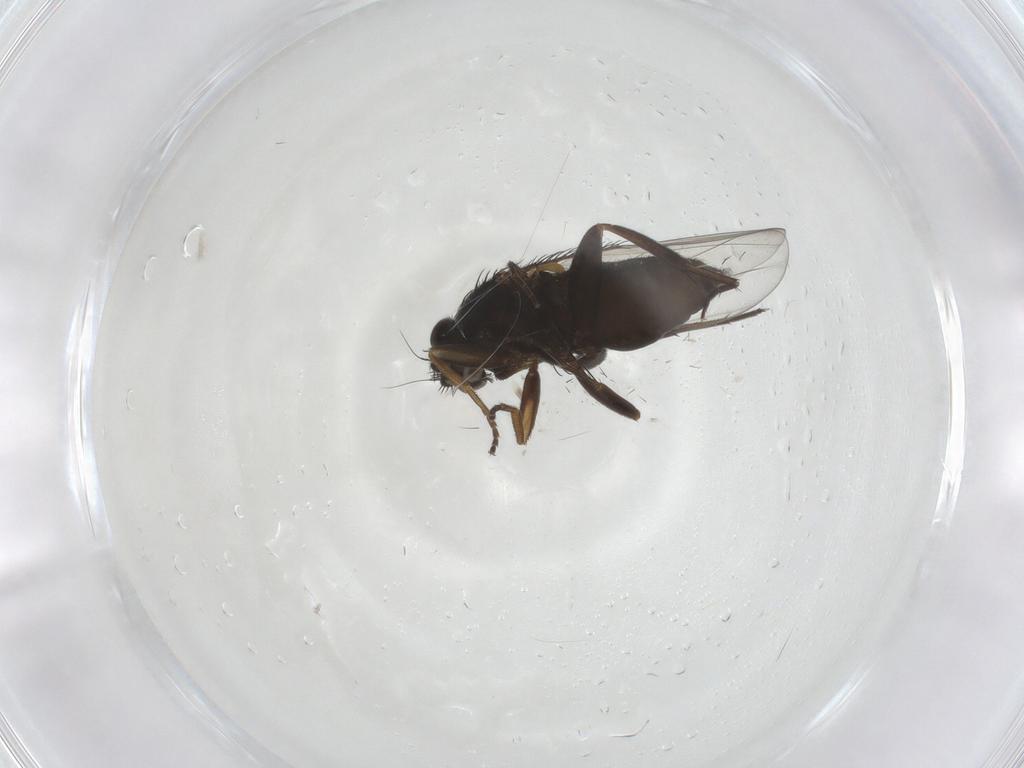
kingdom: Animalia
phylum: Arthropoda
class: Insecta
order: Diptera
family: Phoridae
